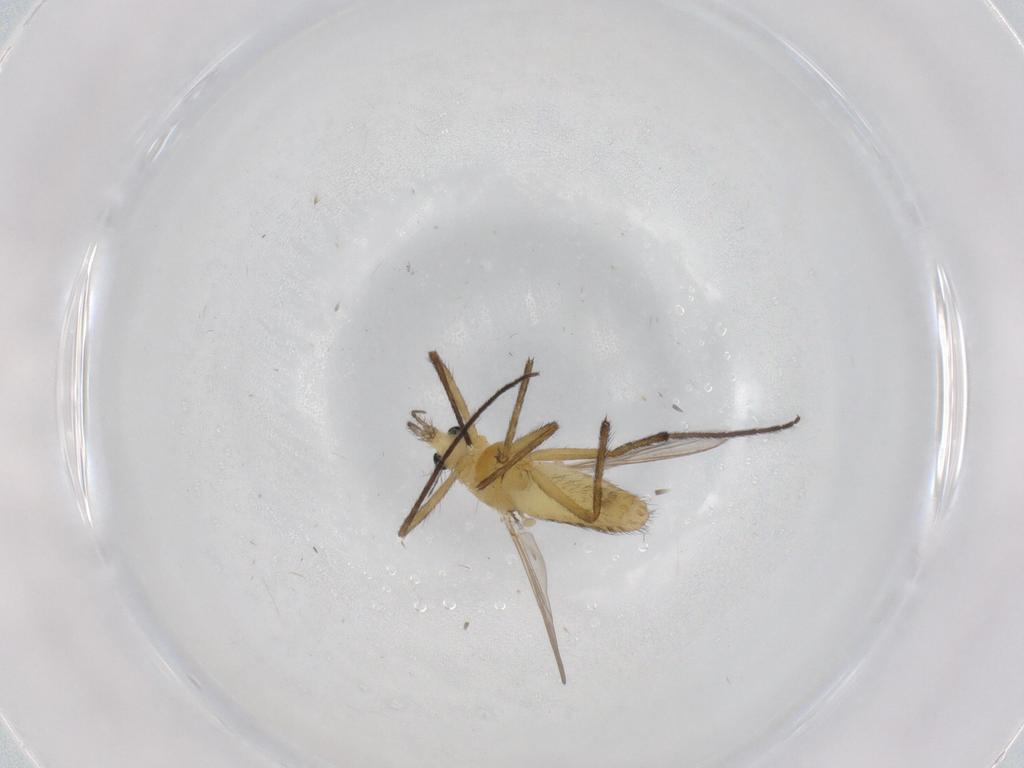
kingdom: Animalia
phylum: Arthropoda
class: Insecta
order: Diptera
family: Chironomidae
